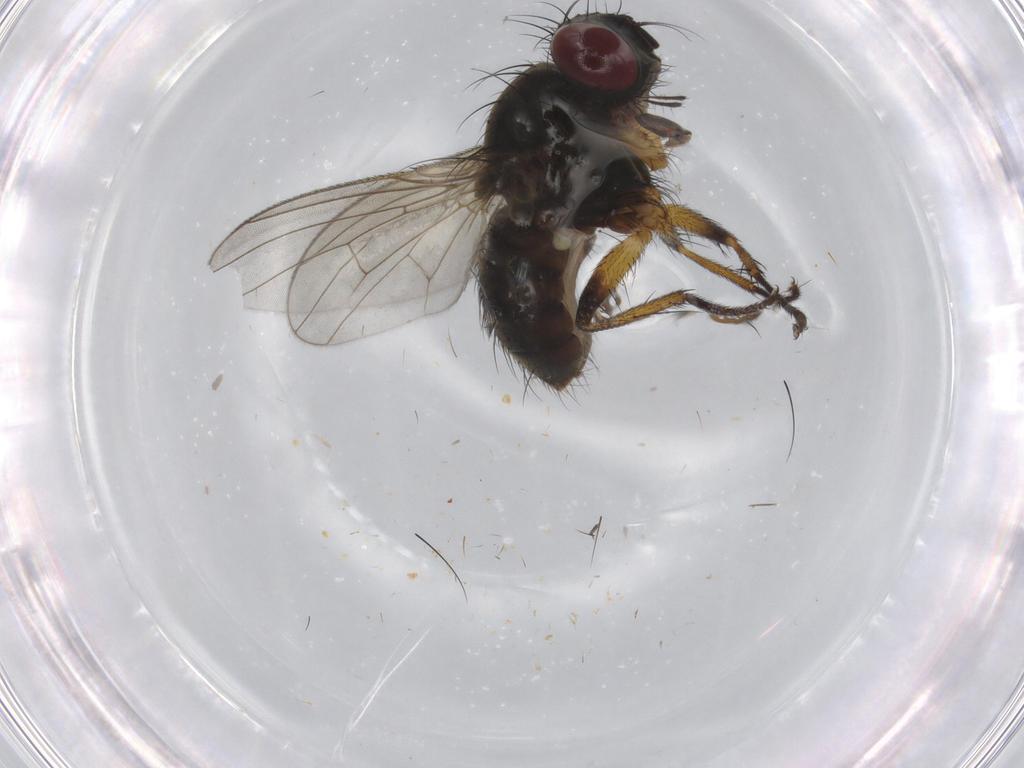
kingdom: Animalia
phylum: Arthropoda
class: Insecta
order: Diptera
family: Muscidae
